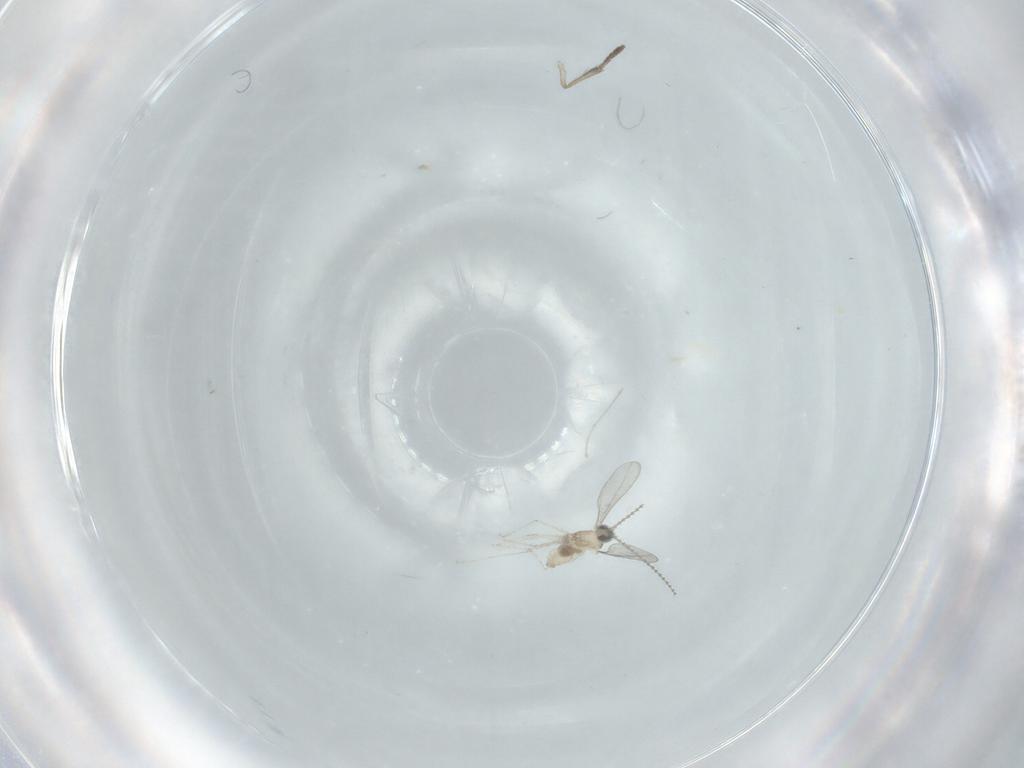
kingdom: Animalia
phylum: Arthropoda
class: Insecta
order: Diptera
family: Cecidomyiidae
